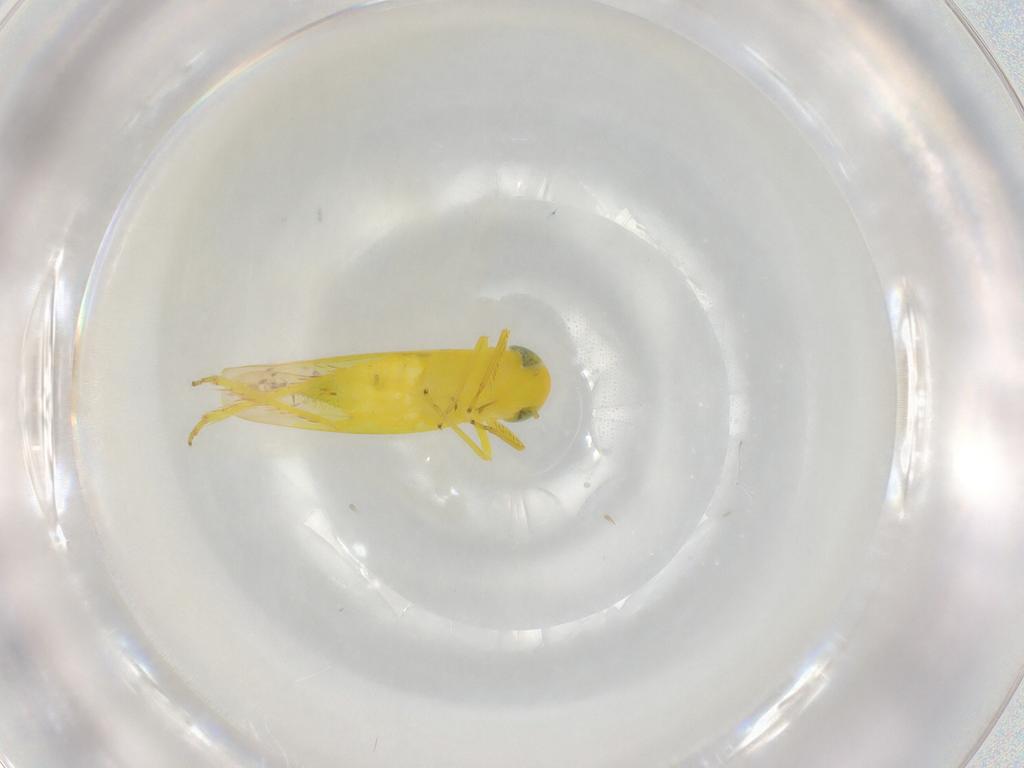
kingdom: Animalia
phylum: Arthropoda
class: Insecta
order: Hemiptera
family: Cicadellidae
